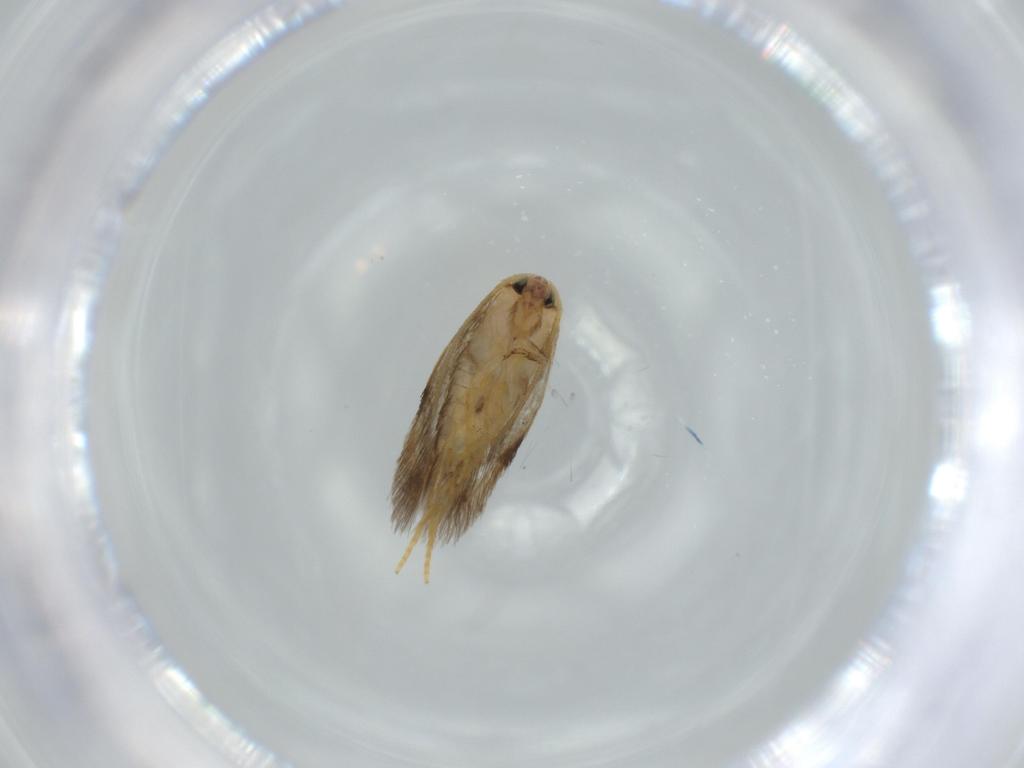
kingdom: Animalia
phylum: Arthropoda
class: Insecta
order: Lepidoptera
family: Nepticulidae
